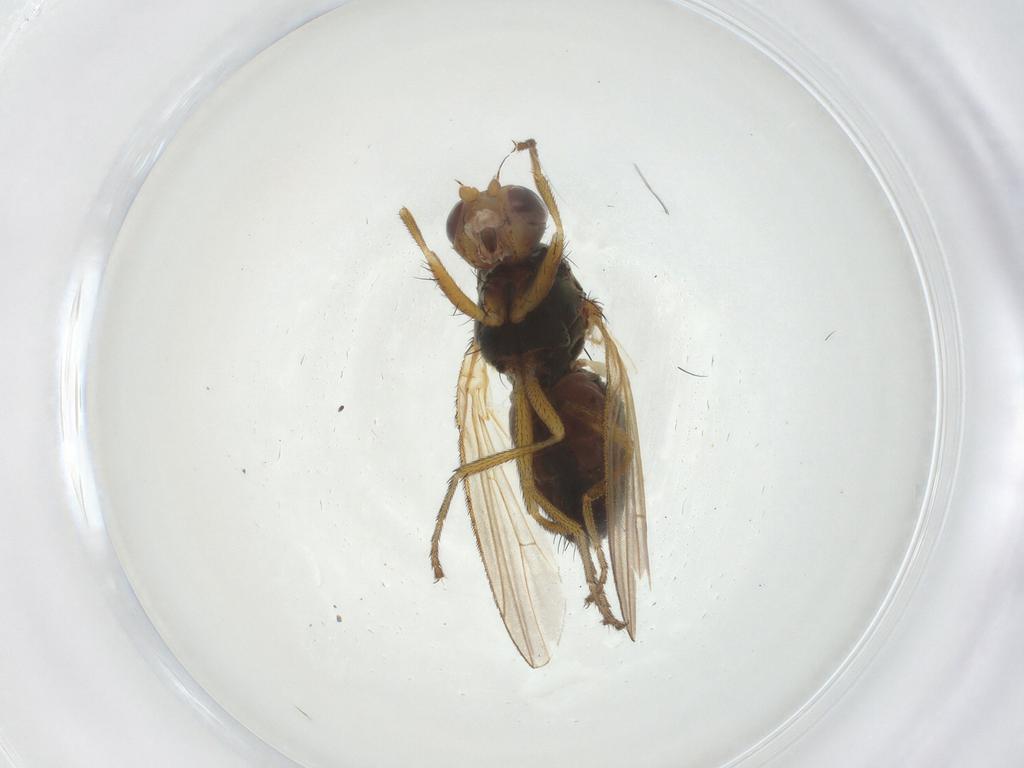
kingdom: Animalia
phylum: Arthropoda
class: Insecta
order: Diptera
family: Heleomyzidae
